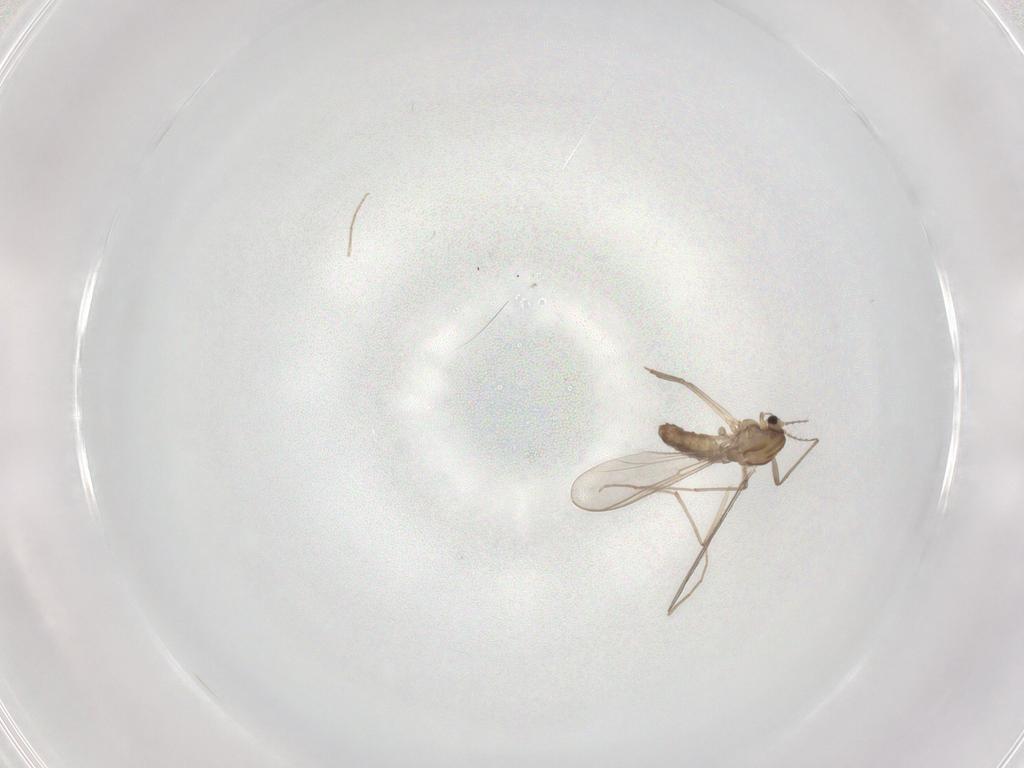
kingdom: Animalia
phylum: Arthropoda
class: Insecta
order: Diptera
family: Chironomidae
